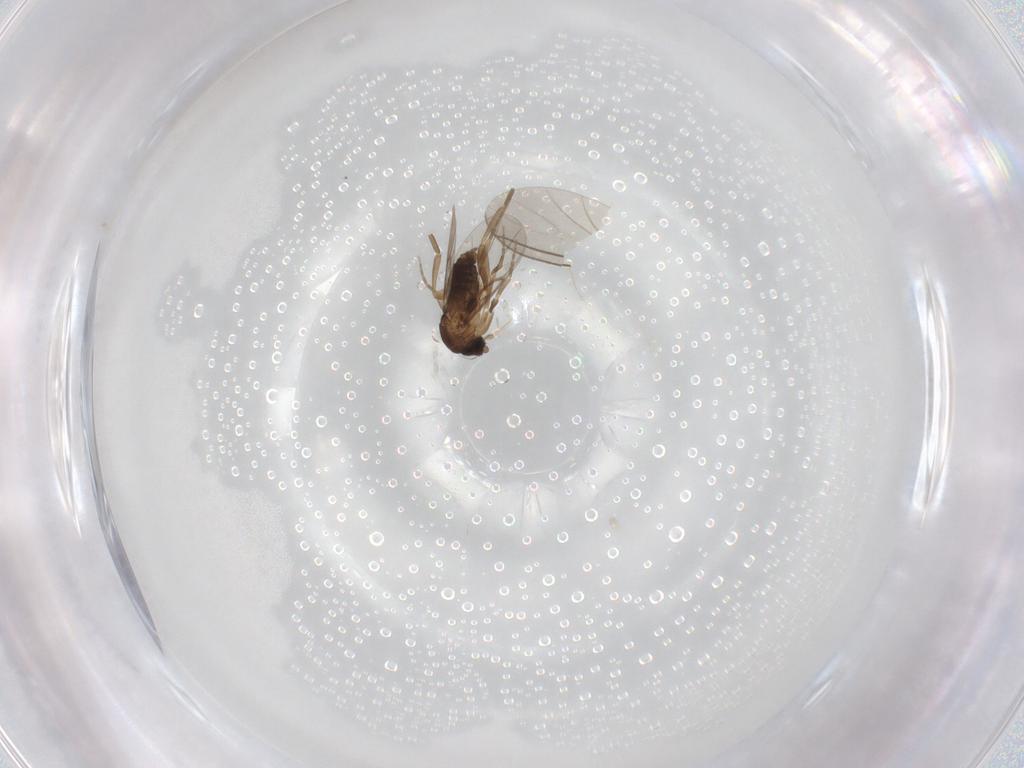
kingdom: Animalia
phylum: Arthropoda
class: Insecta
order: Diptera
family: Phoridae
